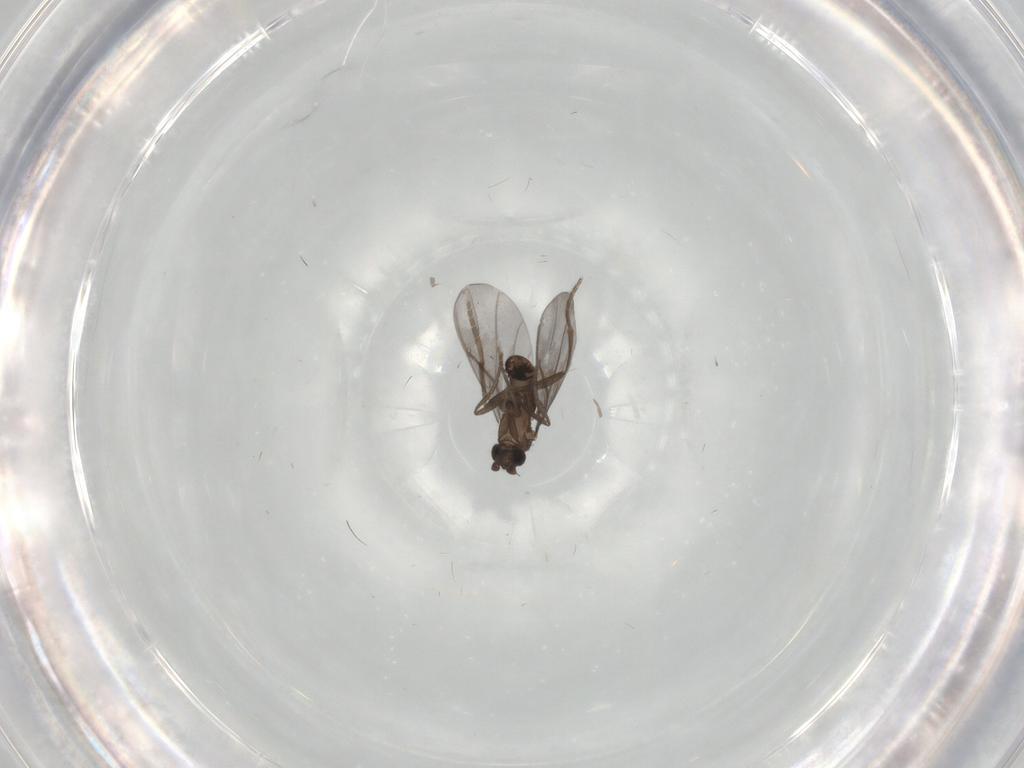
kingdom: Animalia
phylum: Arthropoda
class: Insecta
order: Diptera
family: Phoridae
